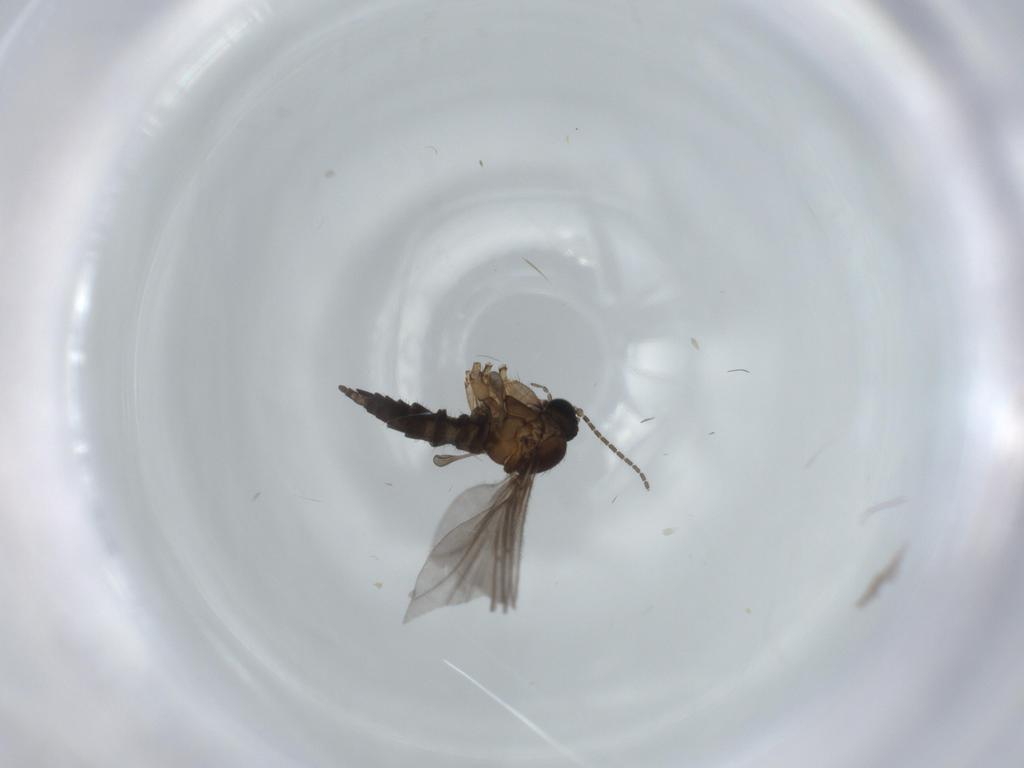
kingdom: Animalia
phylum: Arthropoda
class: Insecta
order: Diptera
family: Sciaridae
